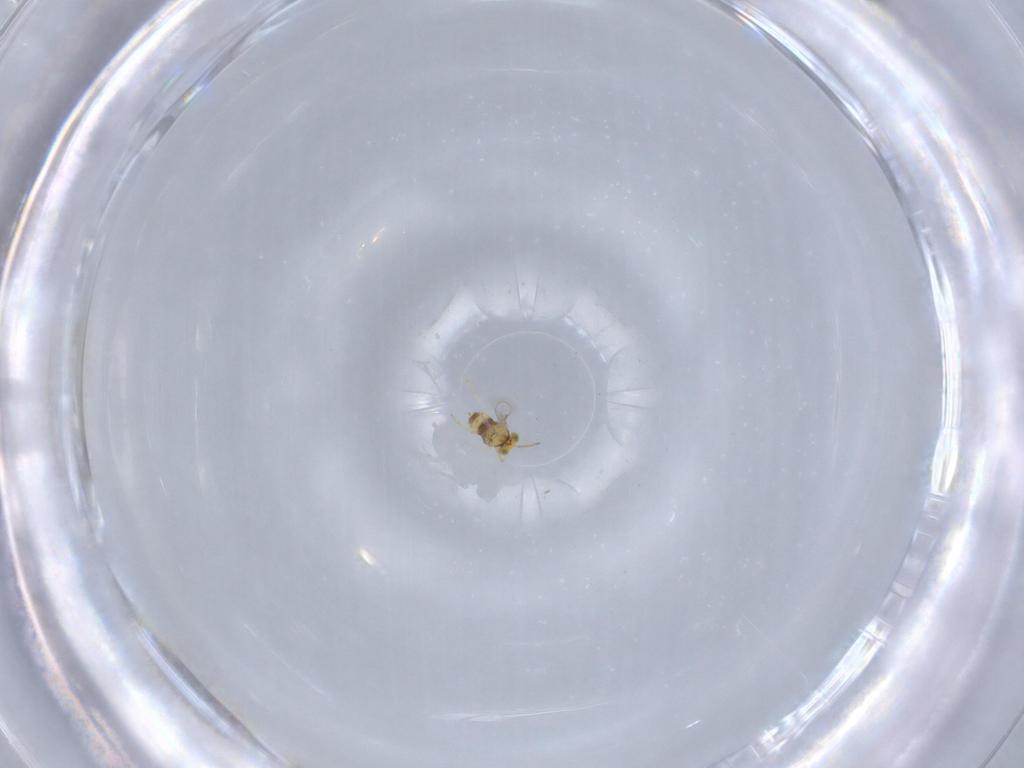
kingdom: Animalia
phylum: Arthropoda
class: Insecta
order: Hymenoptera
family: Aphelinidae
